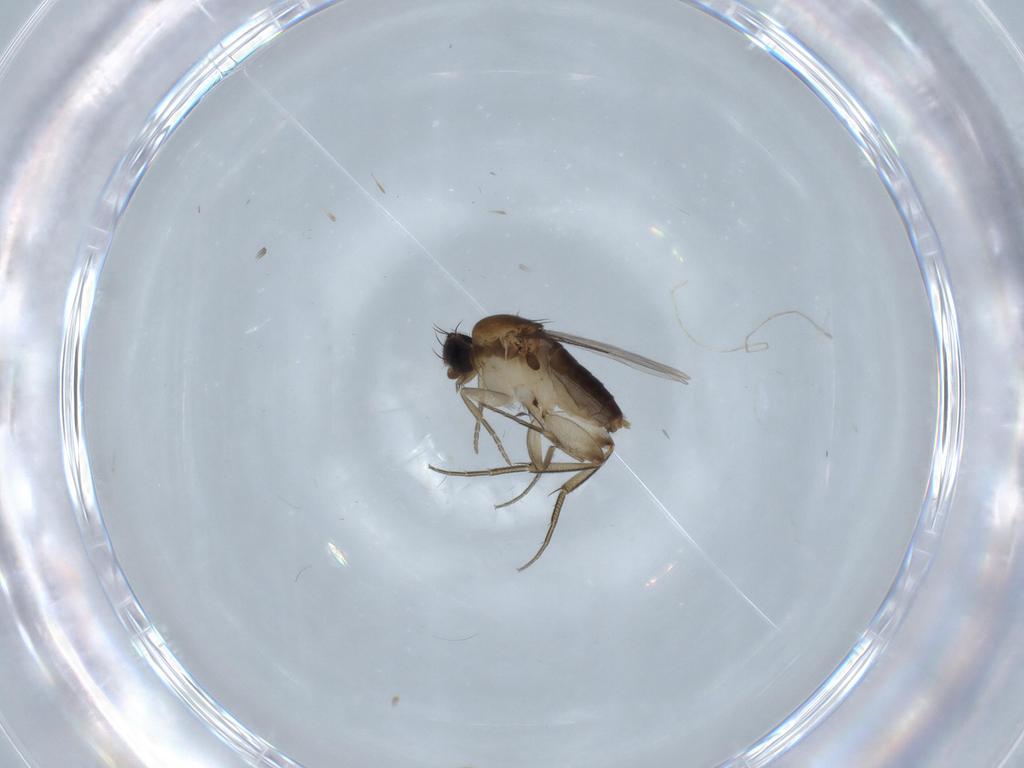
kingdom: Animalia
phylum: Arthropoda
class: Insecta
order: Diptera
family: Phoridae
